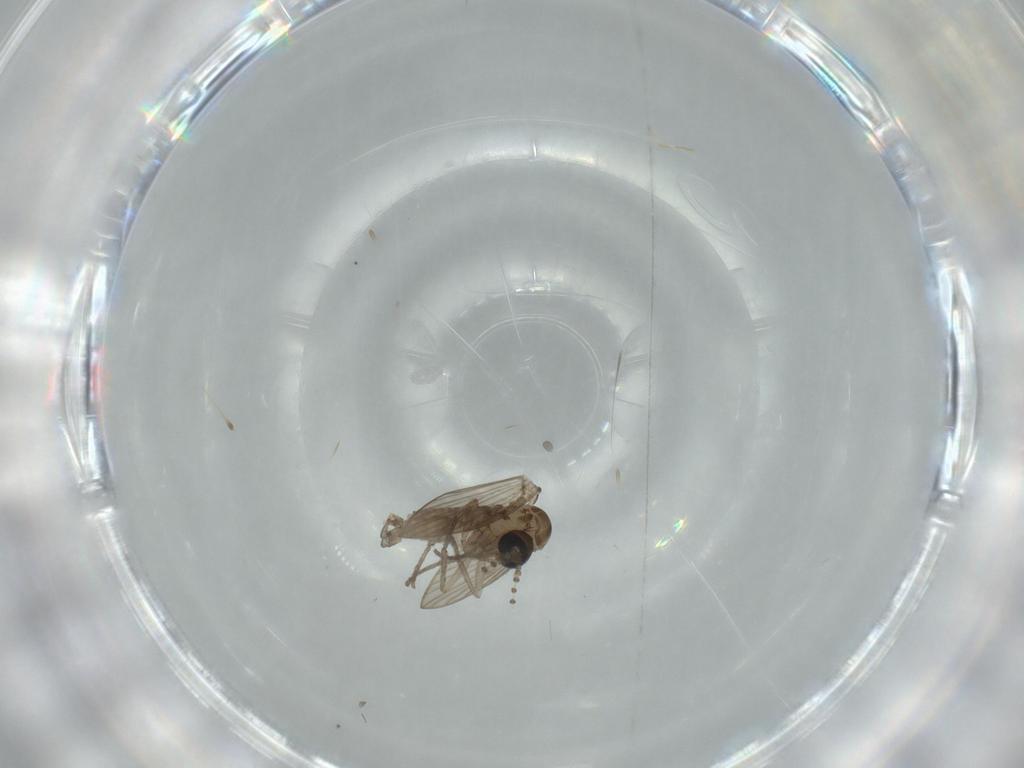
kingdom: Animalia
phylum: Arthropoda
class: Insecta
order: Diptera
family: Psychodidae
